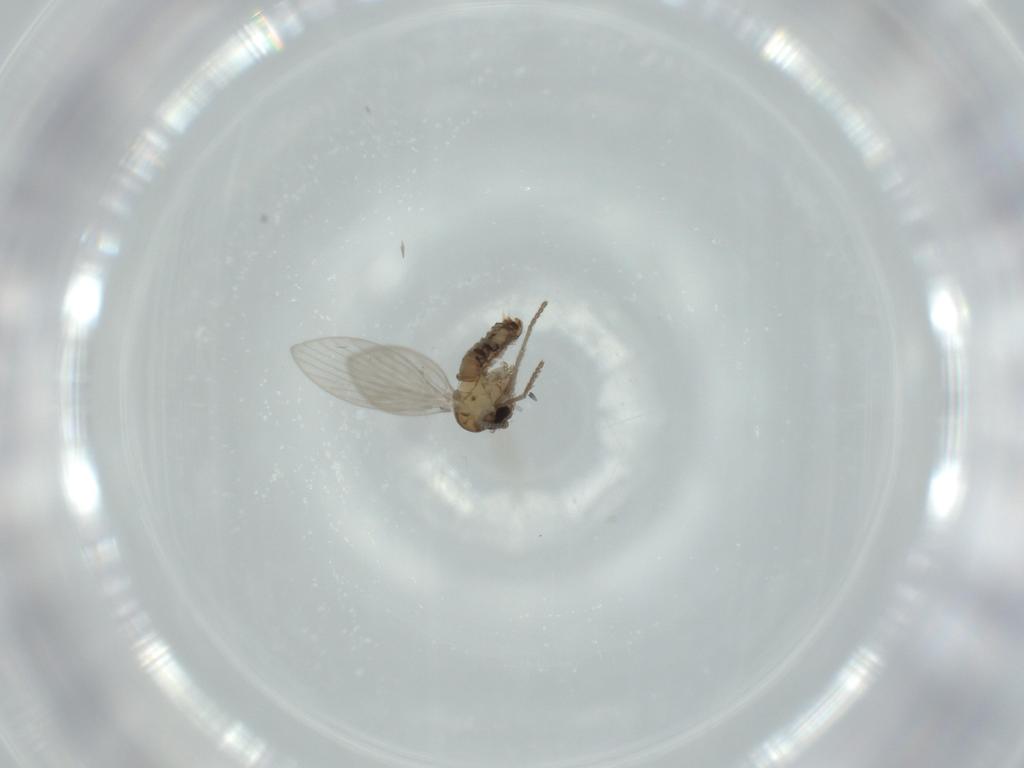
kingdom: Animalia
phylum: Arthropoda
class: Insecta
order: Diptera
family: Psychodidae
